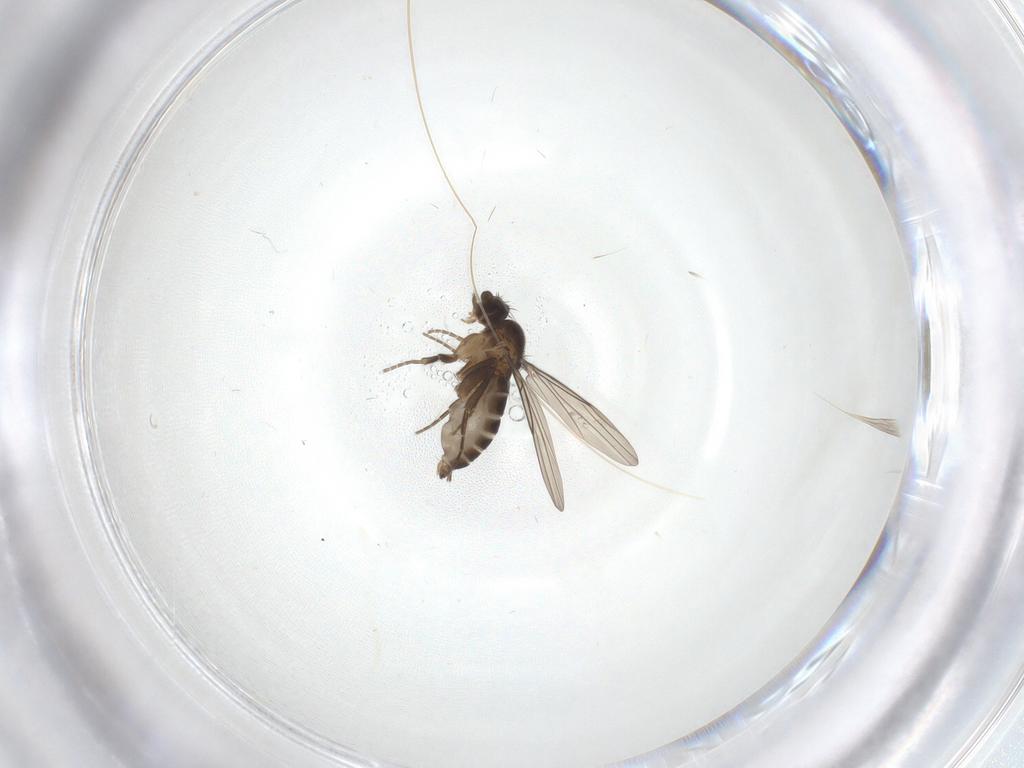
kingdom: Animalia
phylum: Arthropoda
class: Insecta
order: Diptera
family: Phoridae
